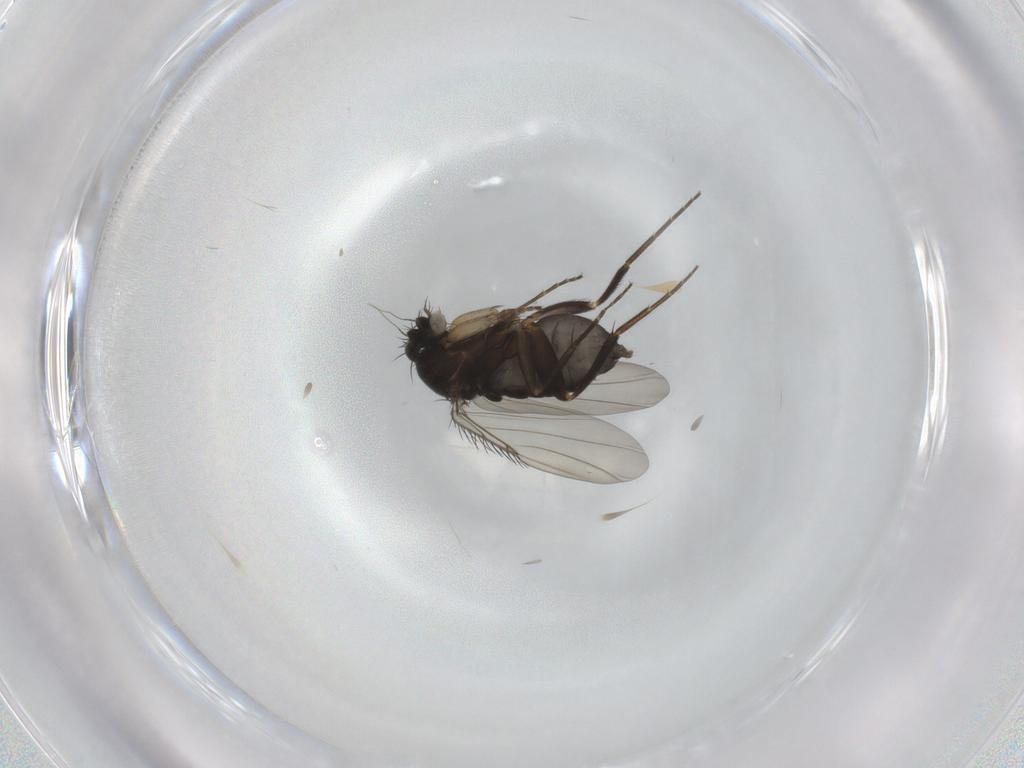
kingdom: Animalia
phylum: Arthropoda
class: Insecta
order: Diptera
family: Phoridae
